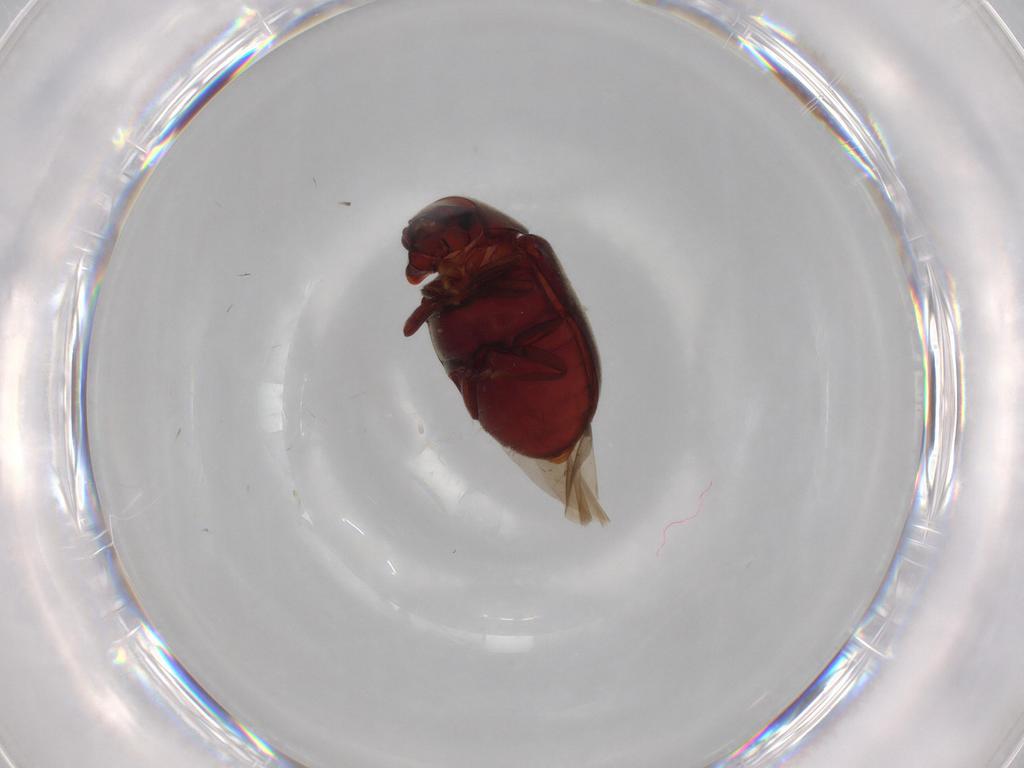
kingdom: Animalia
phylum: Arthropoda
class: Insecta
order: Coleoptera
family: Ptinidae
